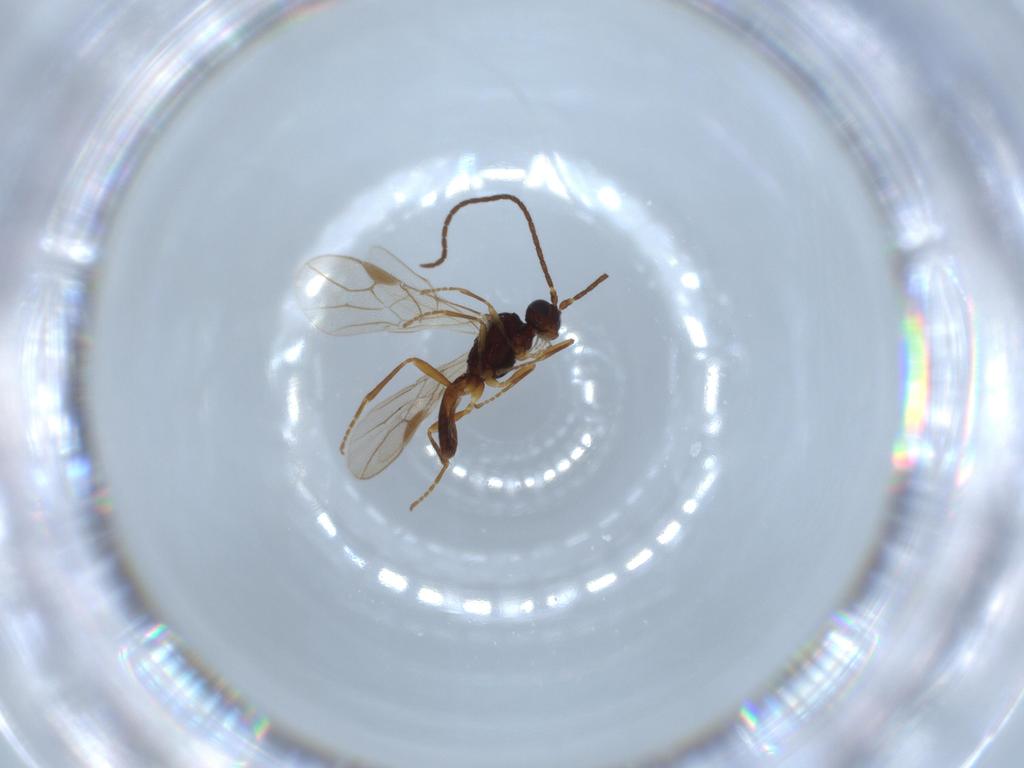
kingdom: Animalia
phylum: Arthropoda
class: Insecta
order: Hymenoptera
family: Braconidae
